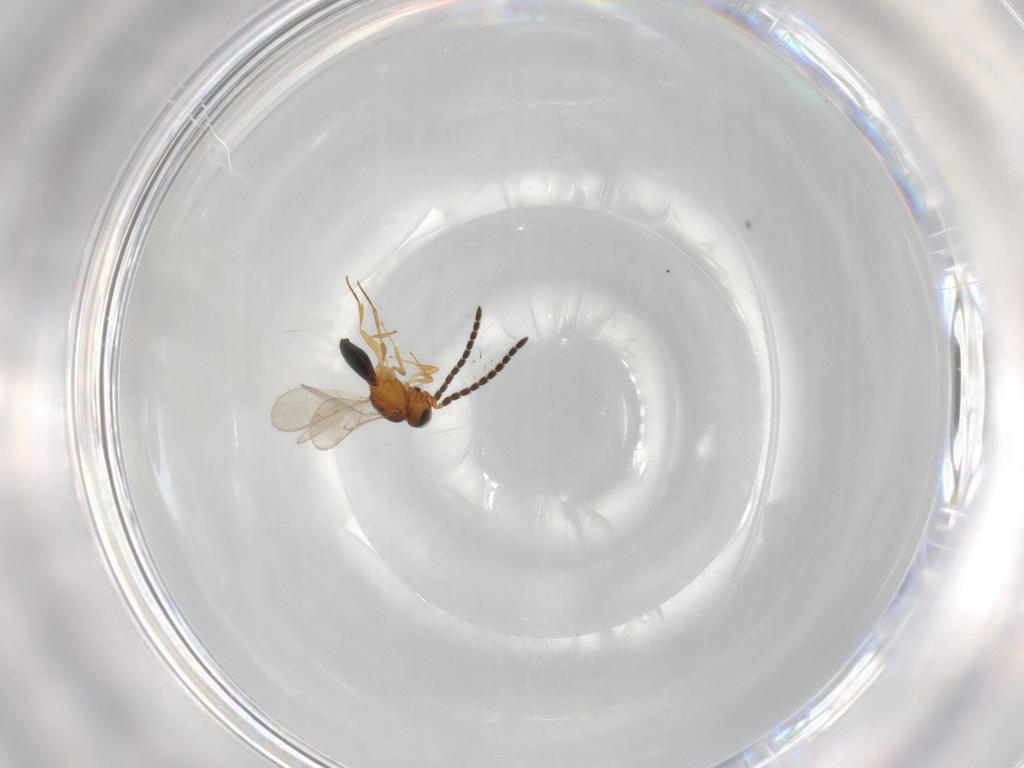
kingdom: Animalia
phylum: Arthropoda
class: Insecta
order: Hymenoptera
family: Scelionidae
